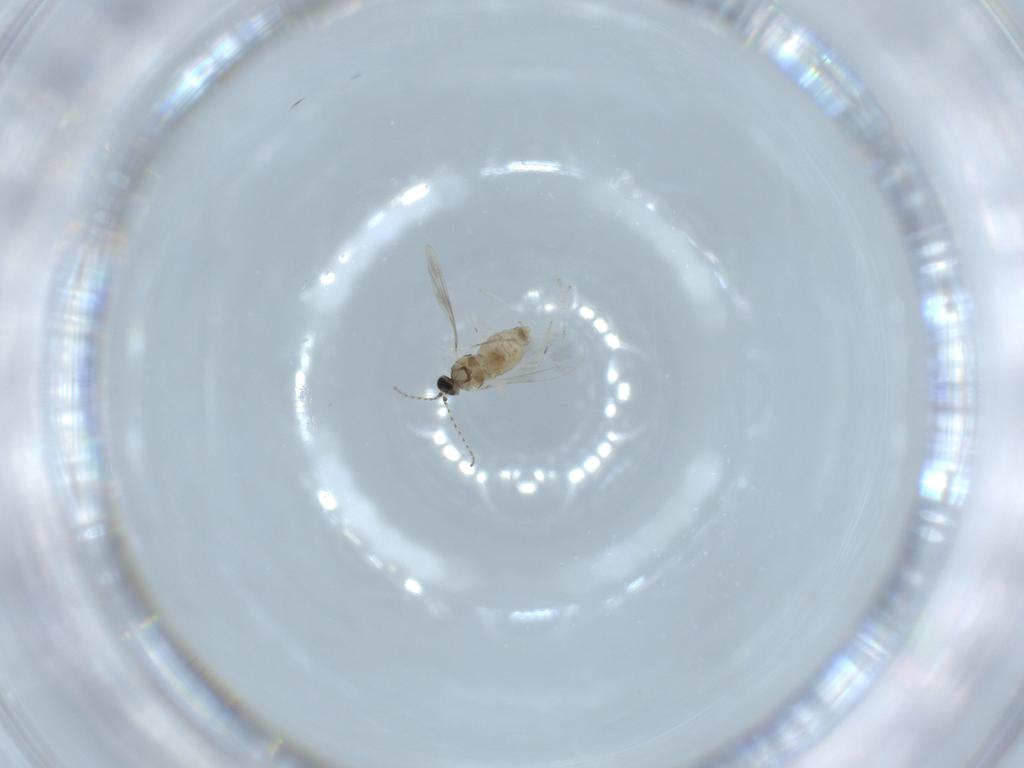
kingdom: Animalia
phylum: Arthropoda
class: Insecta
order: Diptera
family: Cecidomyiidae
